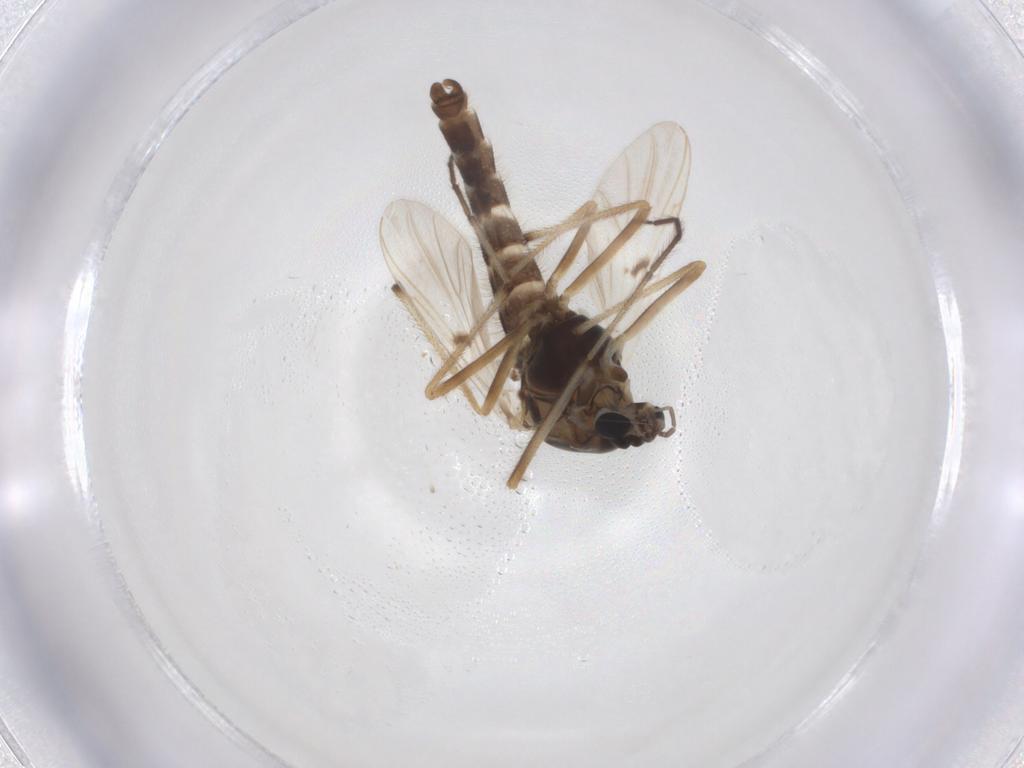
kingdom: Animalia
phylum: Arthropoda
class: Insecta
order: Diptera
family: Chironomidae
